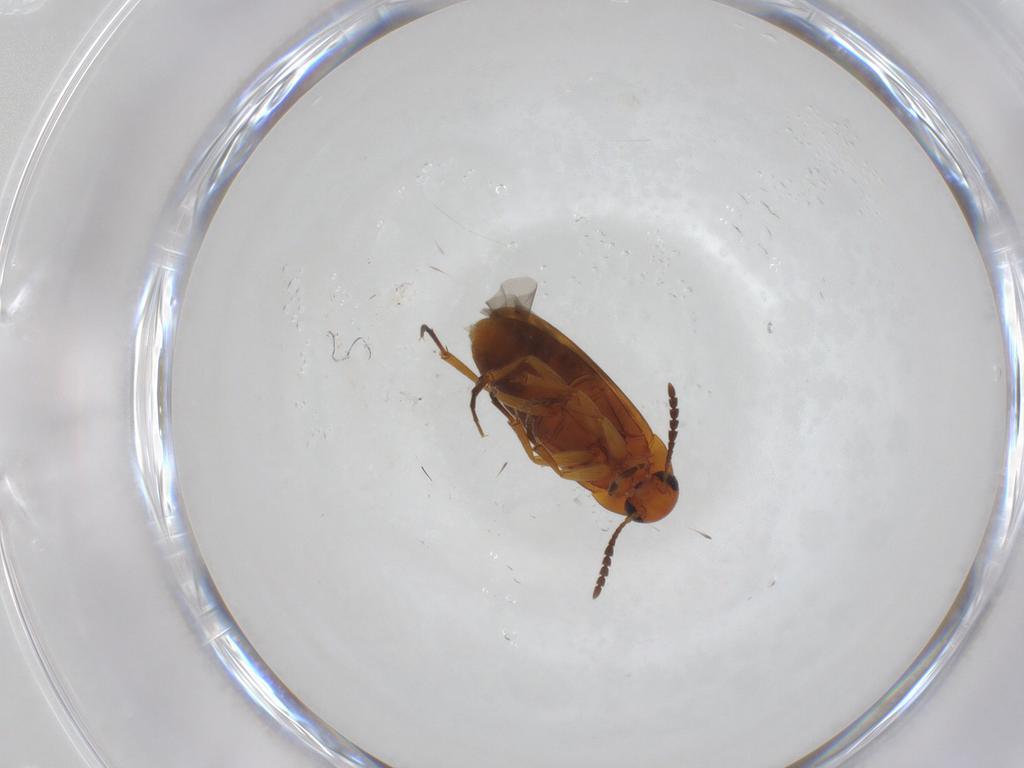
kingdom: Animalia
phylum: Arthropoda
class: Insecta
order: Coleoptera
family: Scraptiidae
